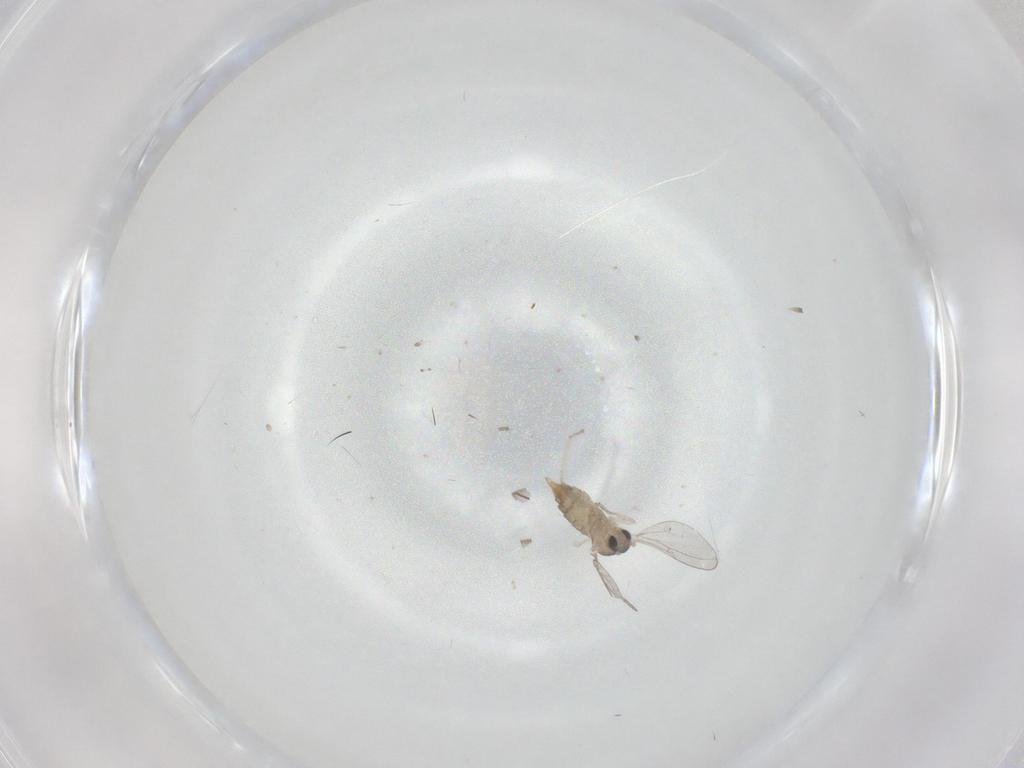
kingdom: Animalia
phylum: Arthropoda
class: Insecta
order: Diptera
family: Cecidomyiidae
